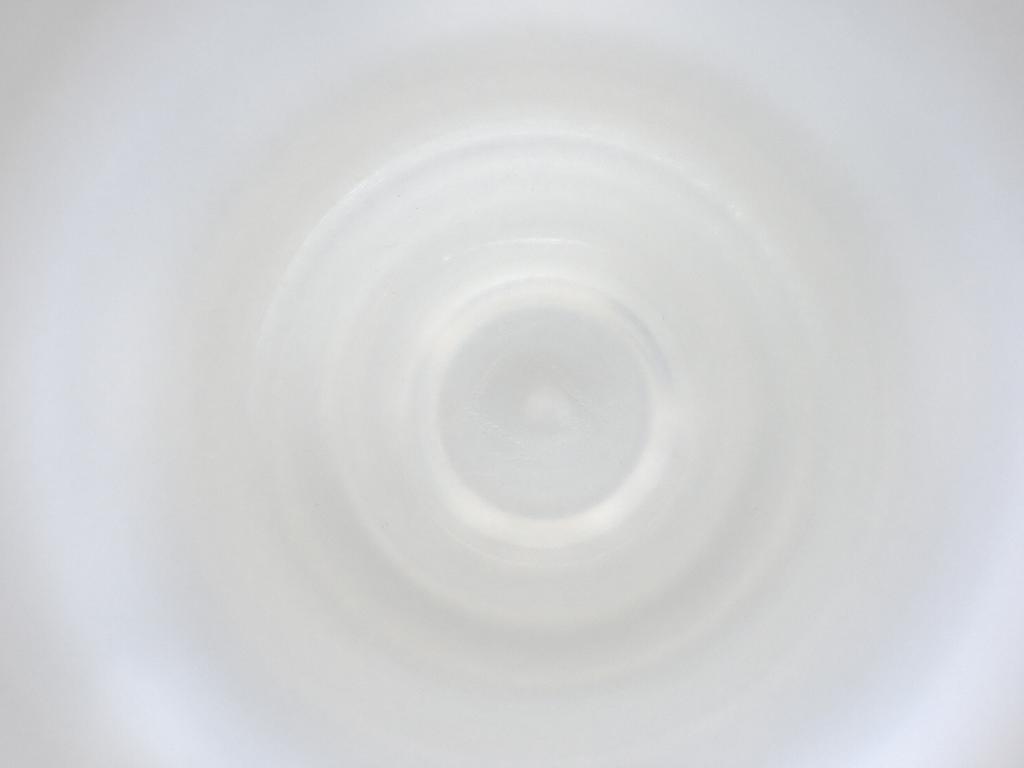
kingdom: Animalia
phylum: Arthropoda
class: Insecta
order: Diptera
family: Cecidomyiidae
